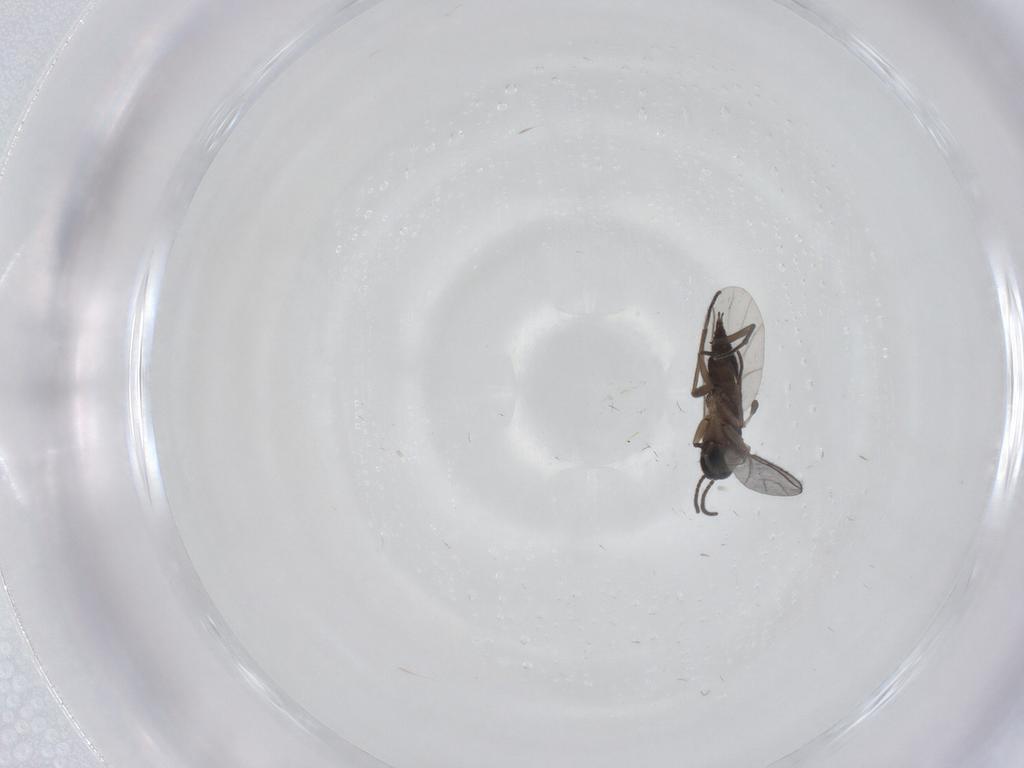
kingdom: Animalia
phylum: Arthropoda
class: Insecta
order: Diptera
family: Sciaridae
